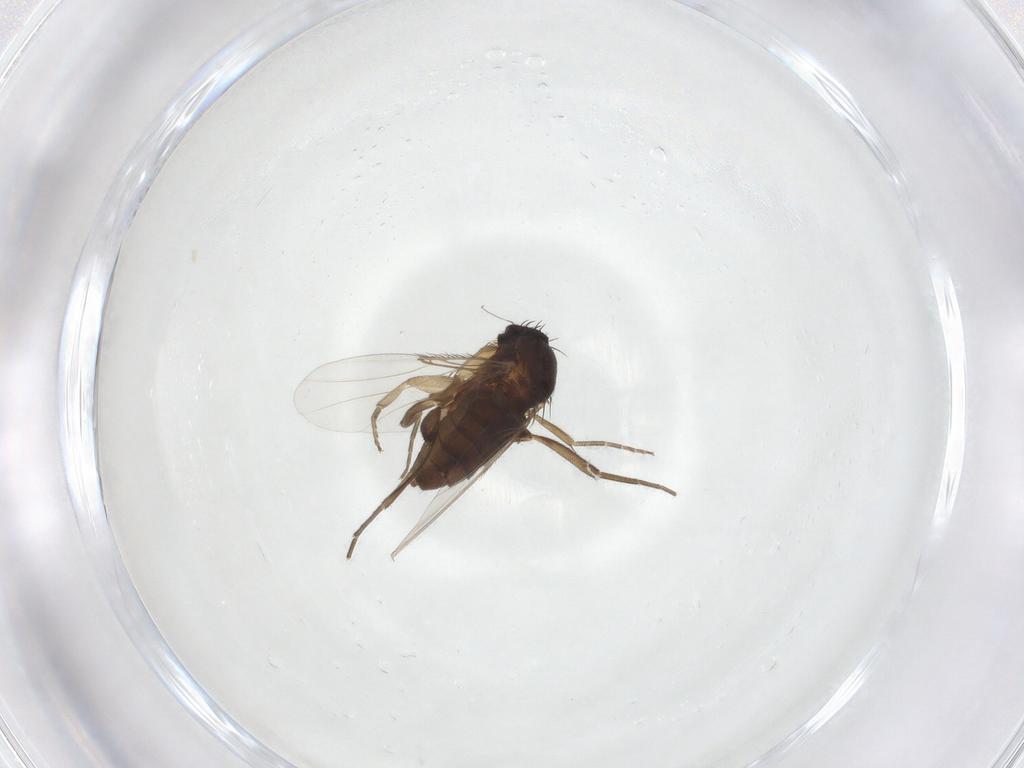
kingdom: Animalia
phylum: Arthropoda
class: Insecta
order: Diptera
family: Phoridae
